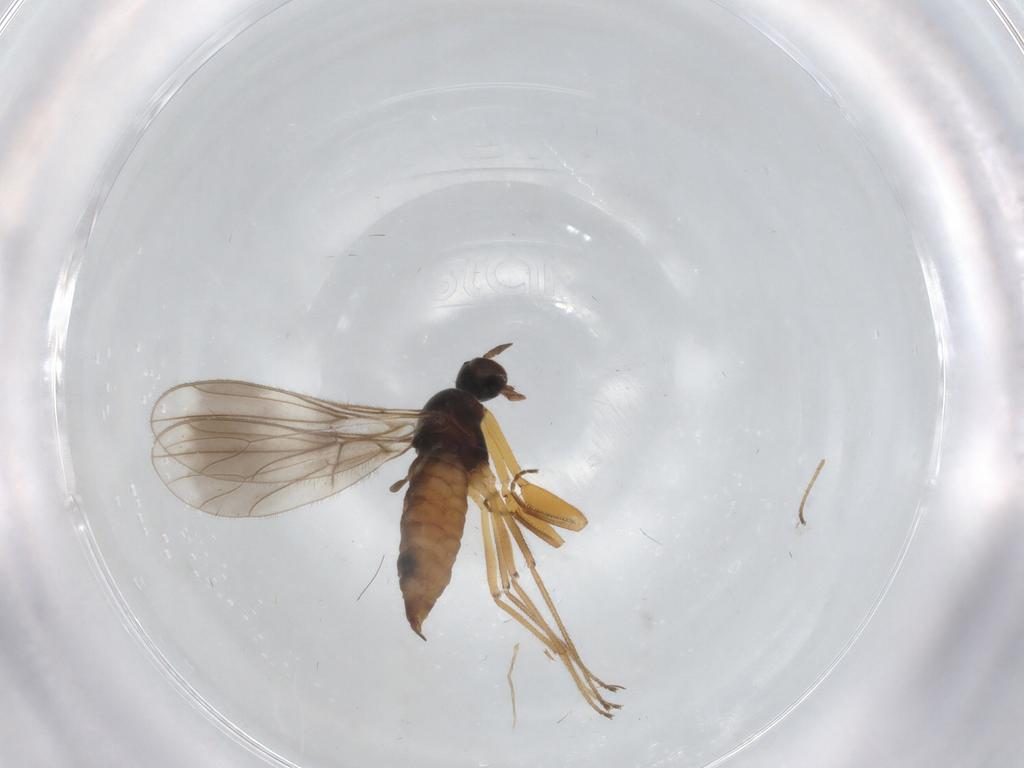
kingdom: Animalia
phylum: Arthropoda
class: Insecta
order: Diptera
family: Empididae
